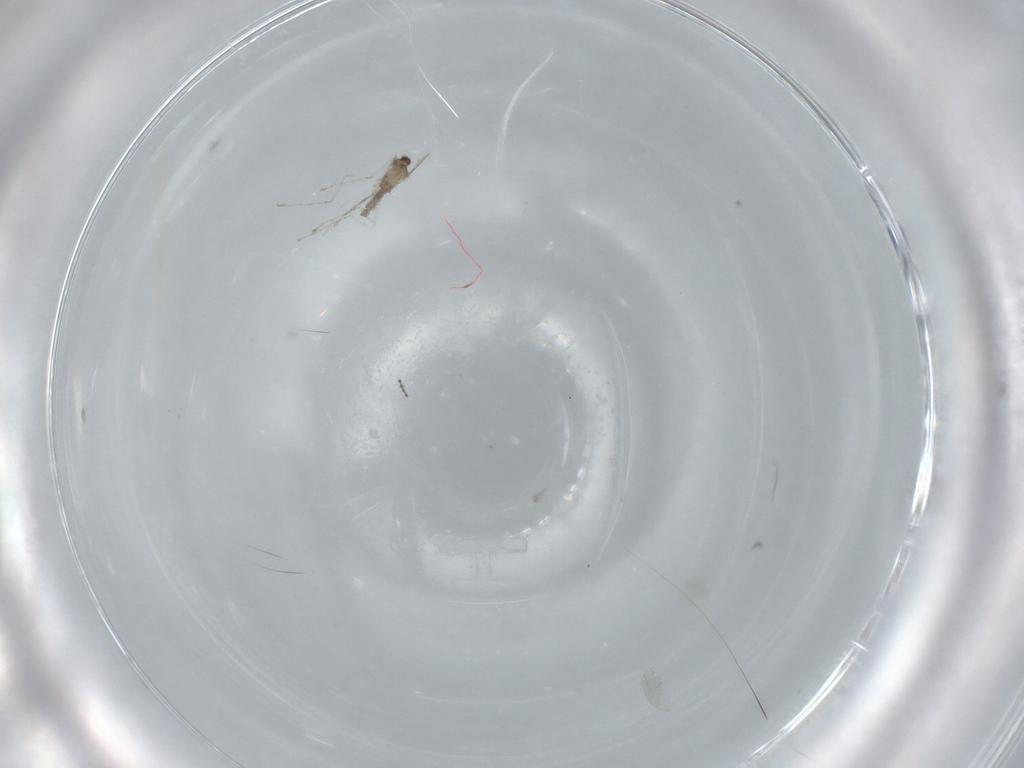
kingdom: Animalia
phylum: Arthropoda
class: Insecta
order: Diptera
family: Cecidomyiidae
